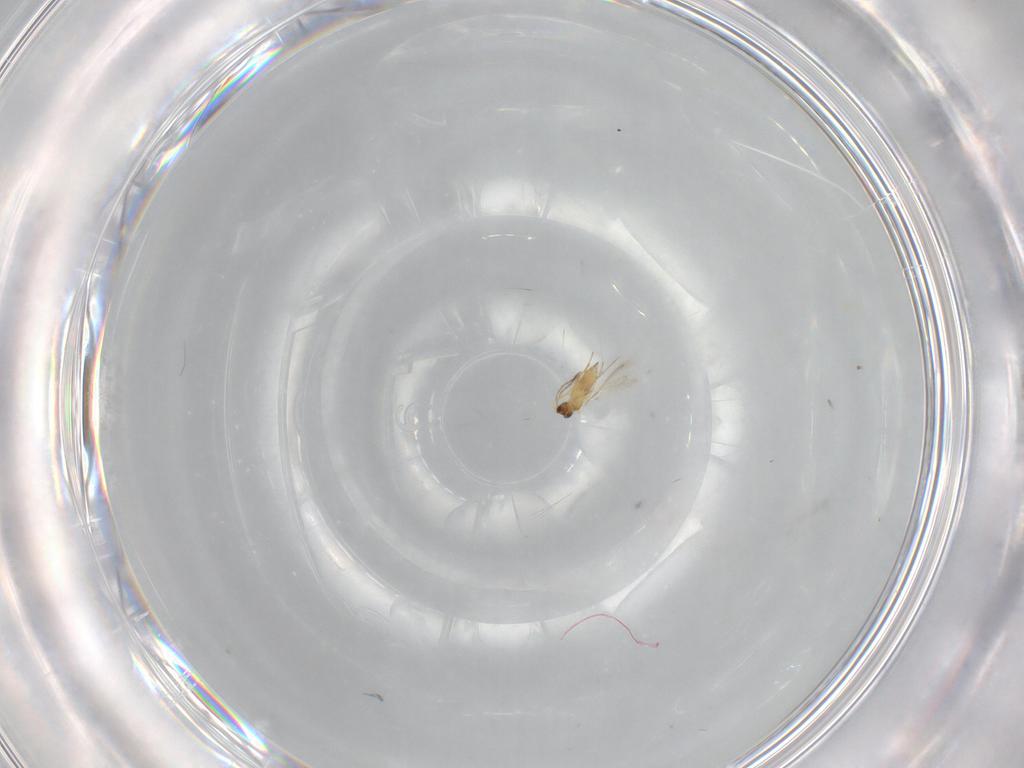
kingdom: Animalia
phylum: Arthropoda
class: Insecta
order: Hymenoptera
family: Mymaridae
